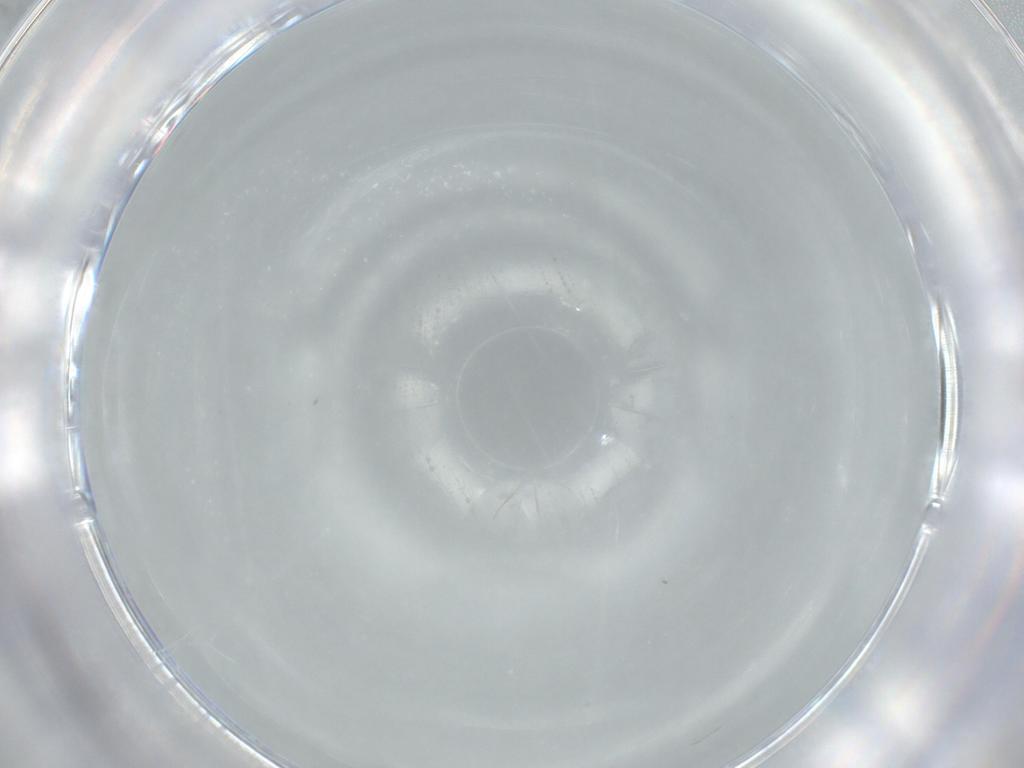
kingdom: Animalia
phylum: Arthropoda
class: Insecta
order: Diptera
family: Cecidomyiidae
